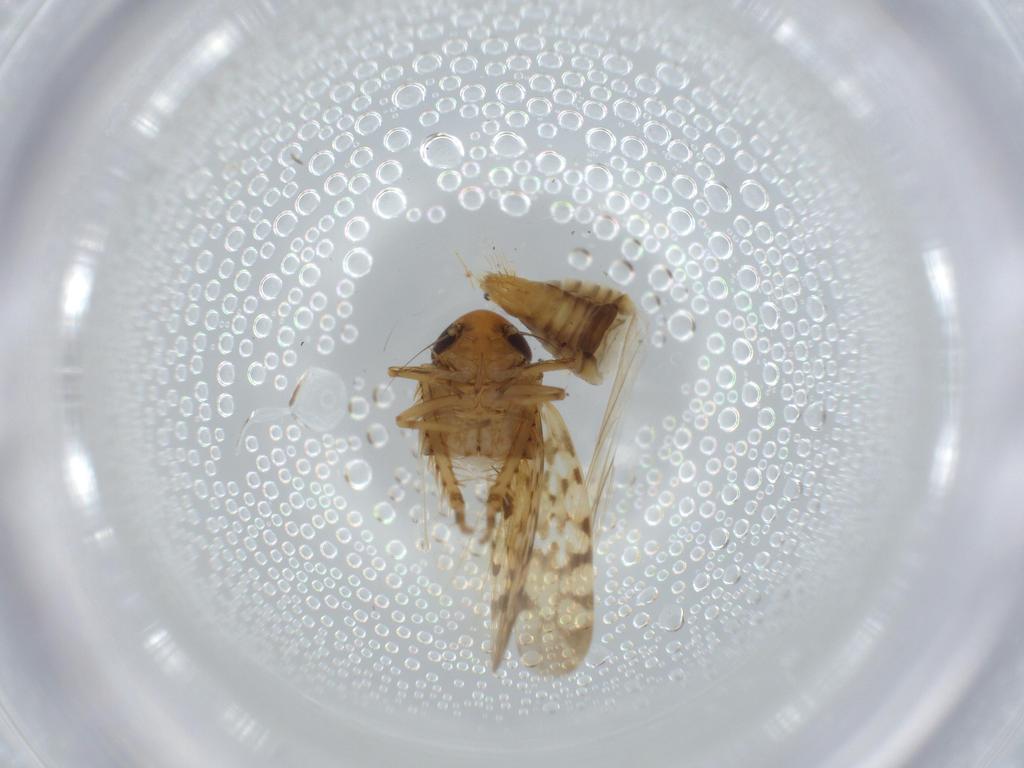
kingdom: Animalia
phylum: Arthropoda
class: Insecta
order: Hemiptera
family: Cicadellidae
